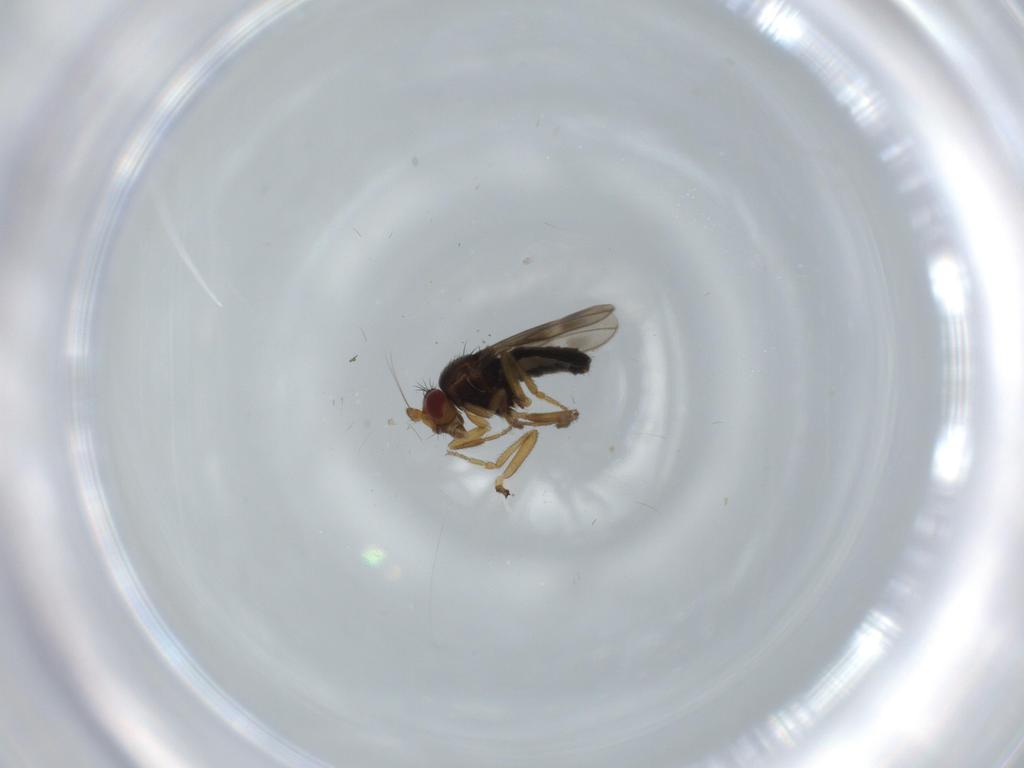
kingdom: Animalia
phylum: Arthropoda
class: Insecta
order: Diptera
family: Sphaeroceridae
